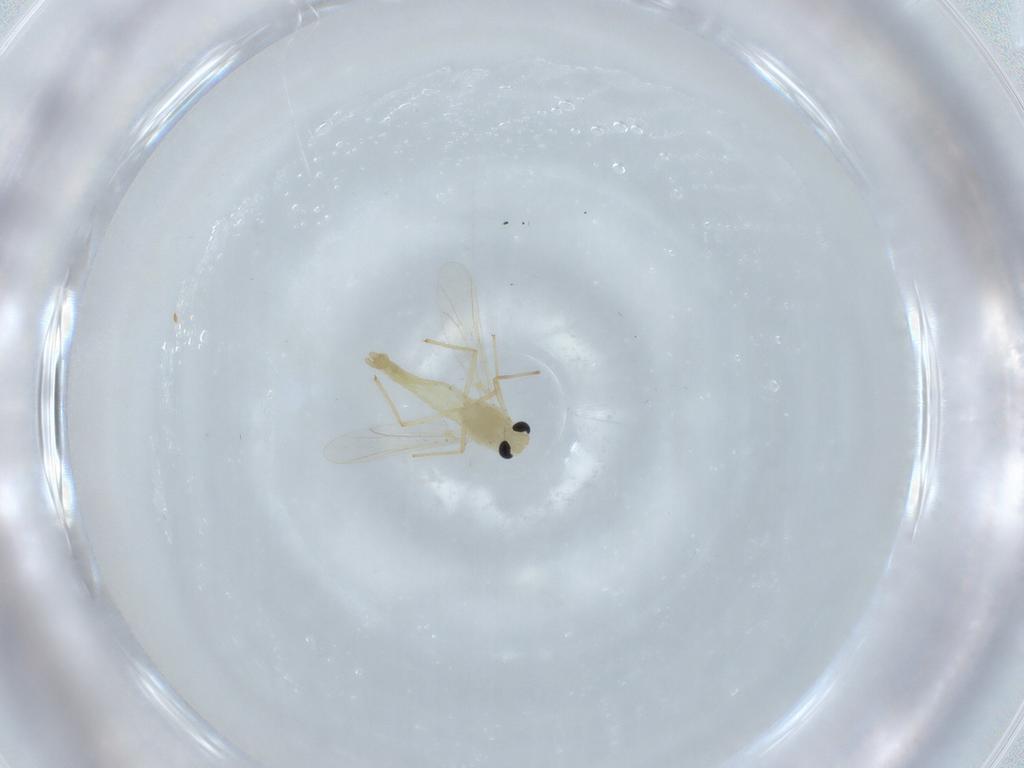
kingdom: Animalia
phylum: Arthropoda
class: Insecta
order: Diptera
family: Chironomidae
